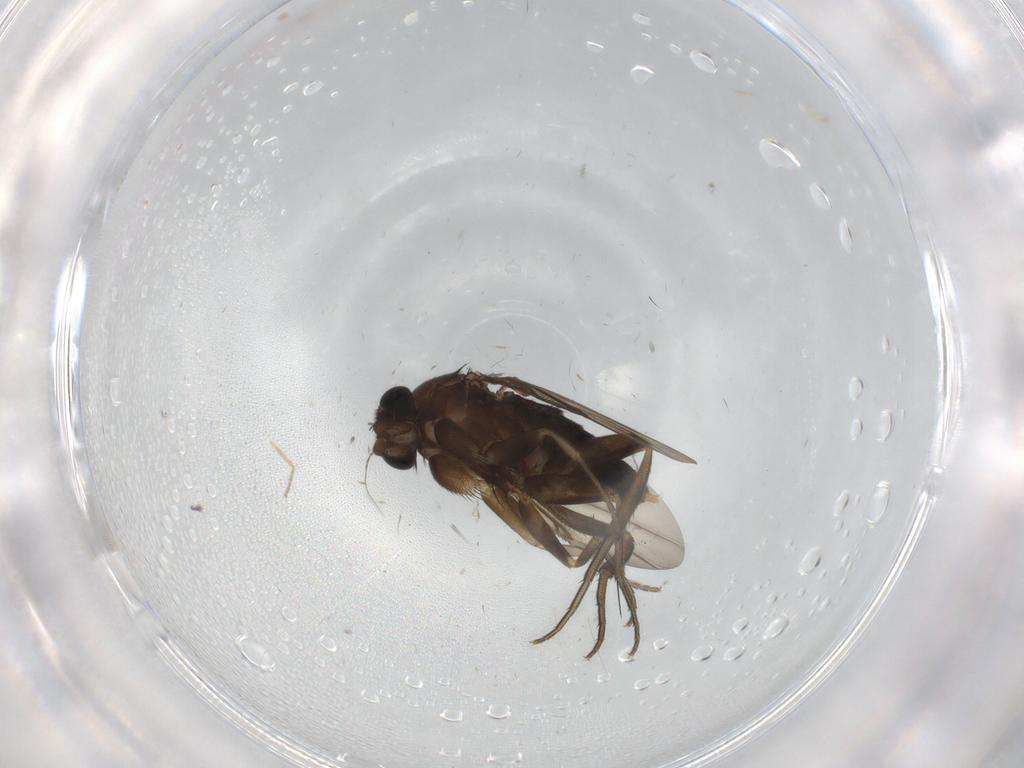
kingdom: Animalia
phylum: Arthropoda
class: Insecta
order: Diptera
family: Phoridae
